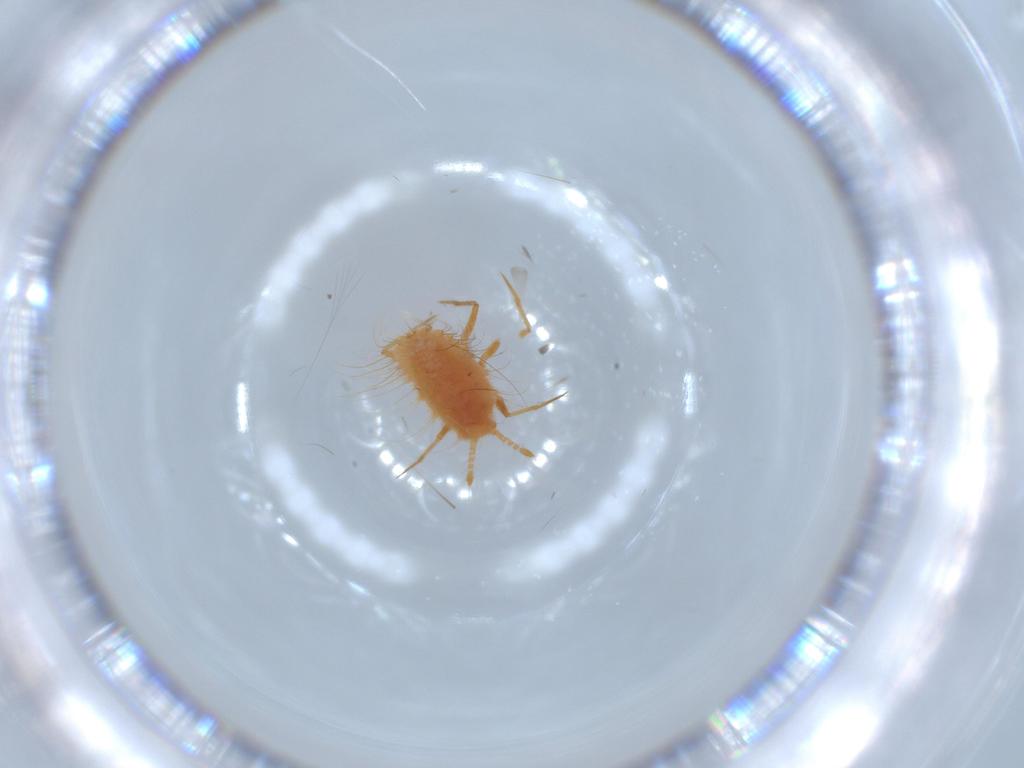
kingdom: Animalia
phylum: Arthropoda
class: Insecta
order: Hemiptera
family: Monophlebidae
